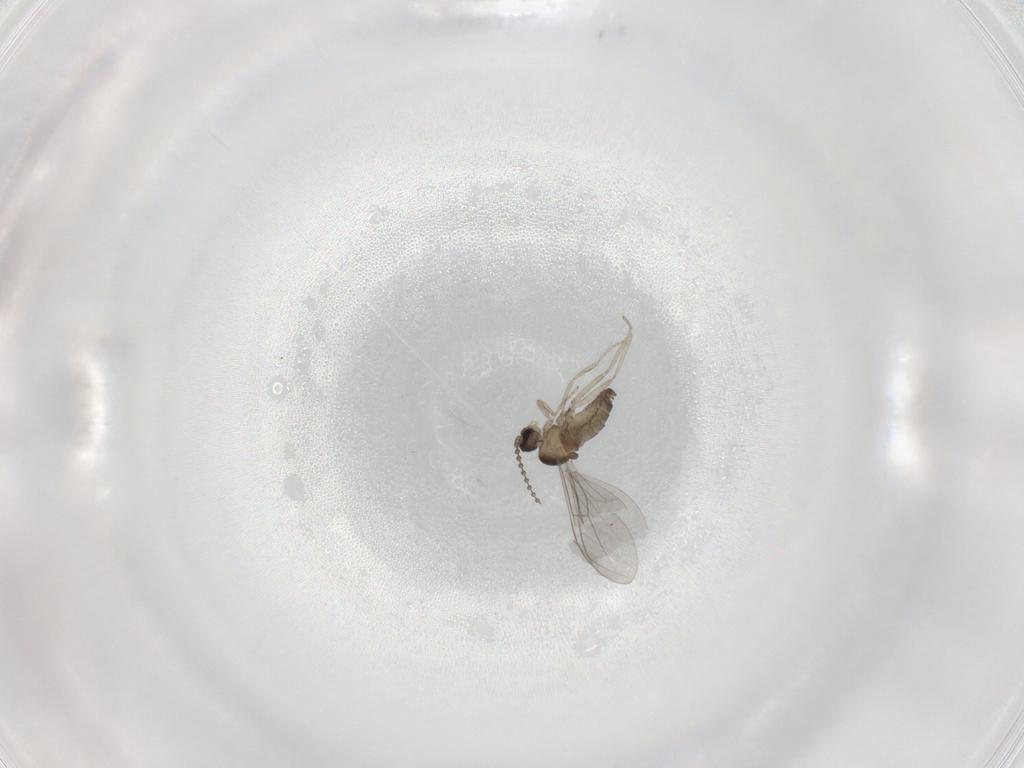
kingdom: Animalia
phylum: Arthropoda
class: Insecta
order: Diptera
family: Cecidomyiidae
